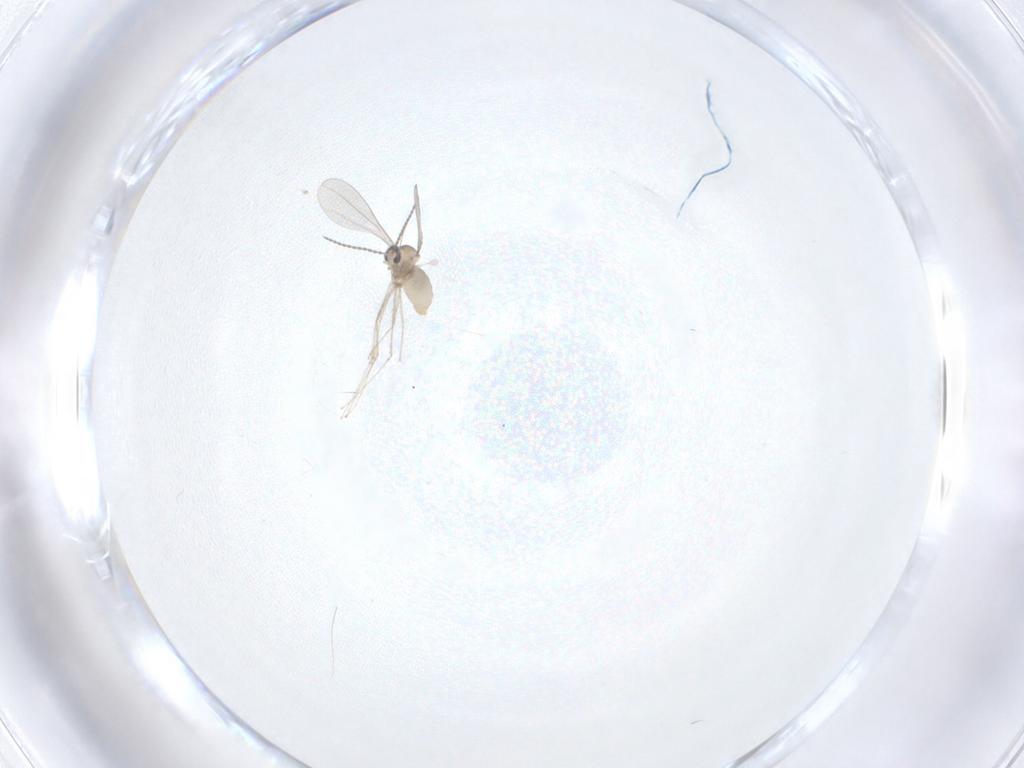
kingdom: Animalia
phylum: Arthropoda
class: Insecta
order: Diptera
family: Cecidomyiidae
